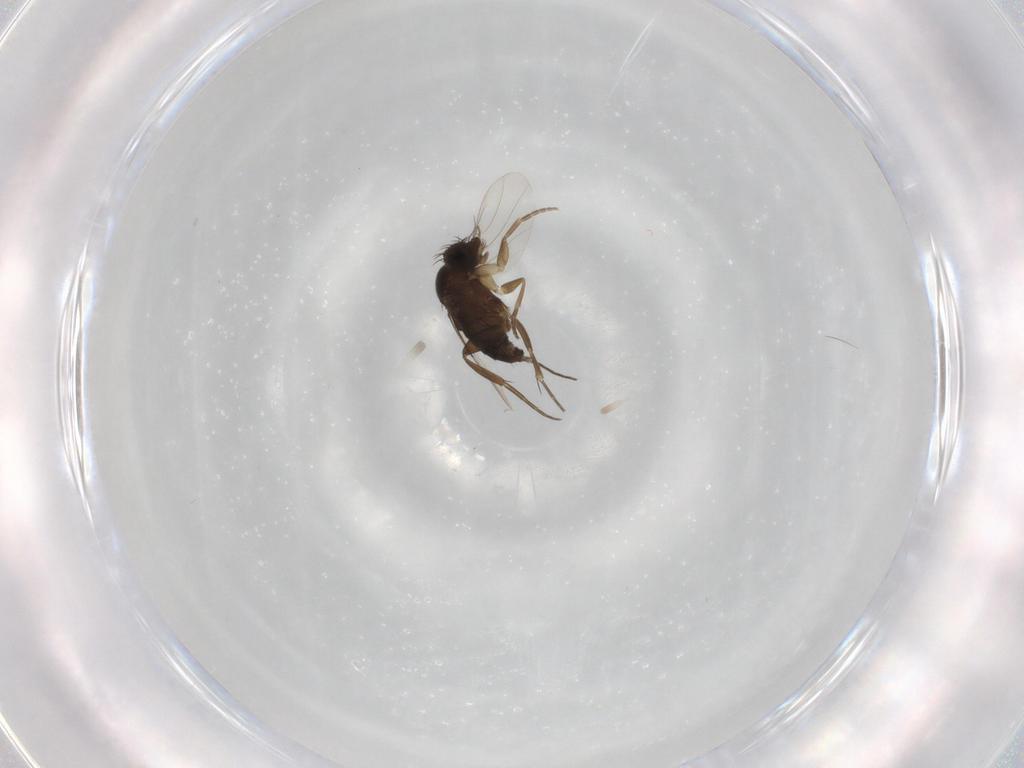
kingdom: Animalia
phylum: Arthropoda
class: Insecta
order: Diptera
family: Phoridae
